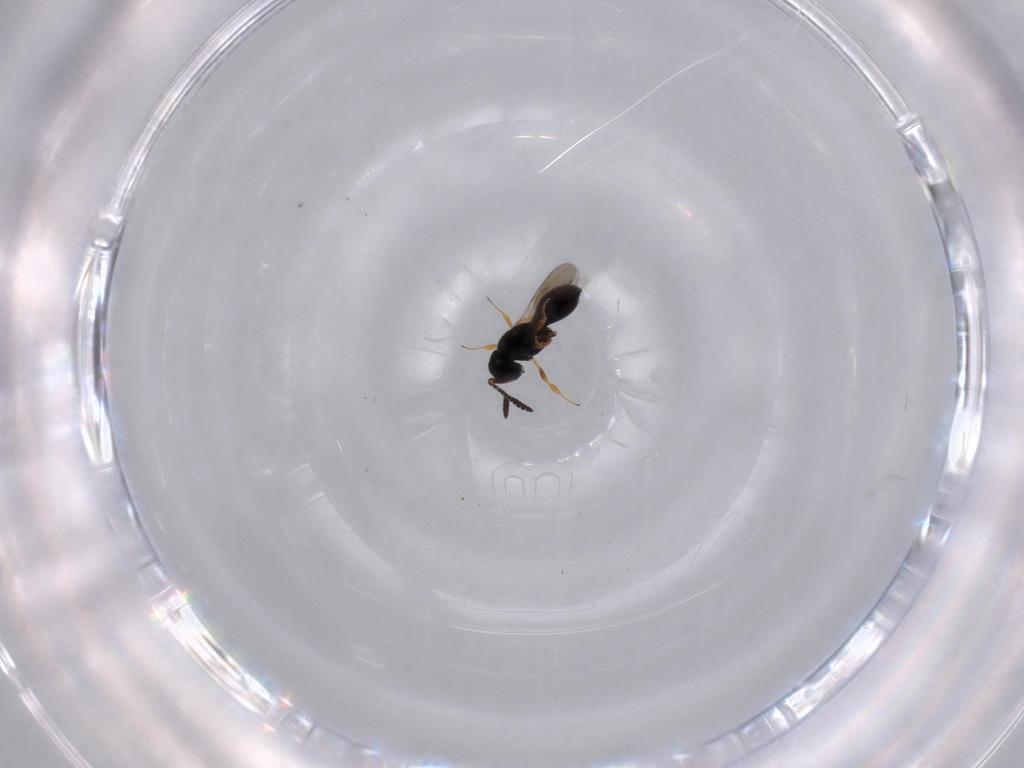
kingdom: Animalia
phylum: Arthropoda
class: Insecta
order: Hymenoptera
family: Scelionidae
